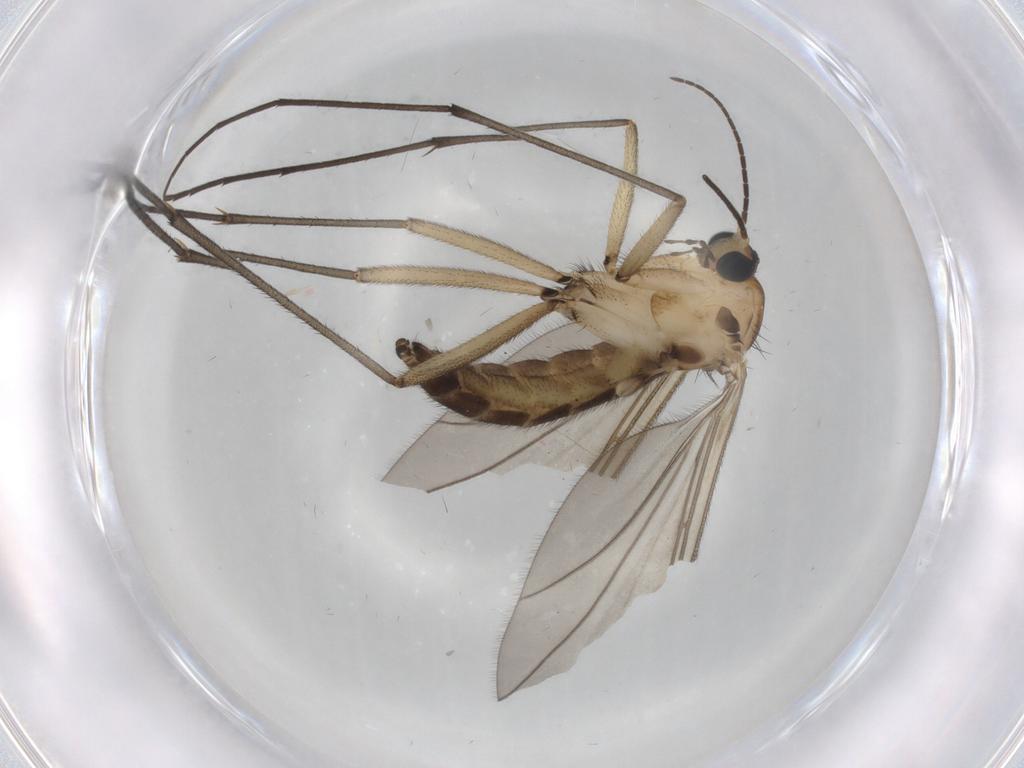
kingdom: Animalia
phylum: Arthropoda
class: Insecta
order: Diptera
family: Sciaridae
